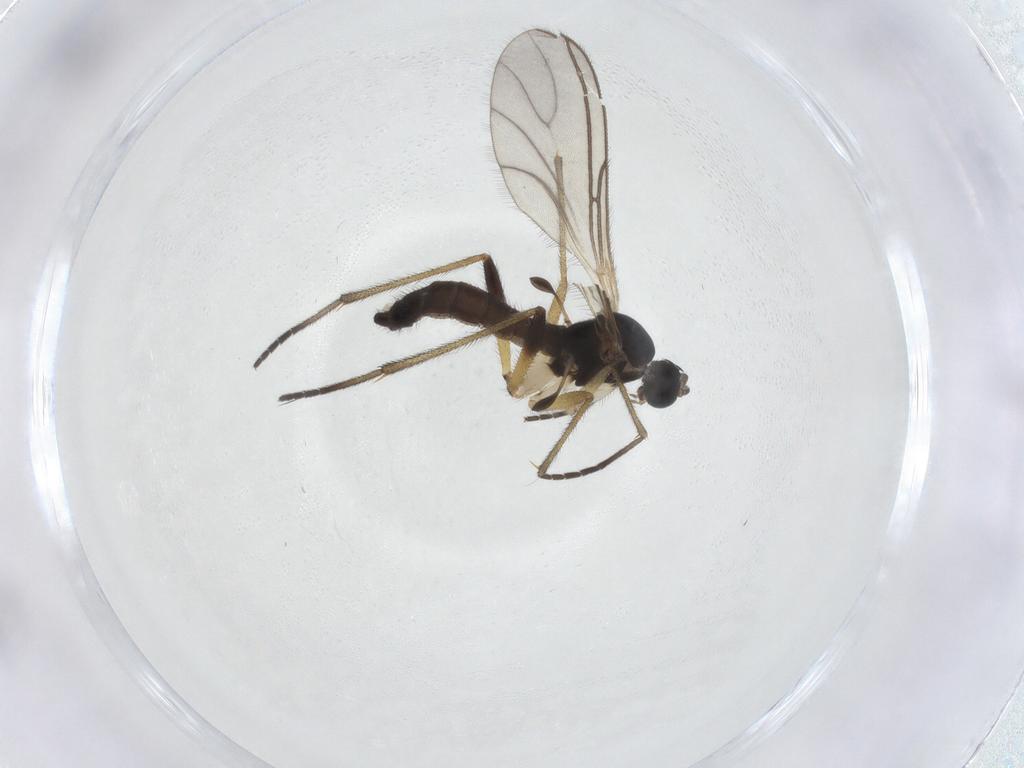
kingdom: Animalia
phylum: Arthropoda
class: Insecta
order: Diptera
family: Sciaridae
